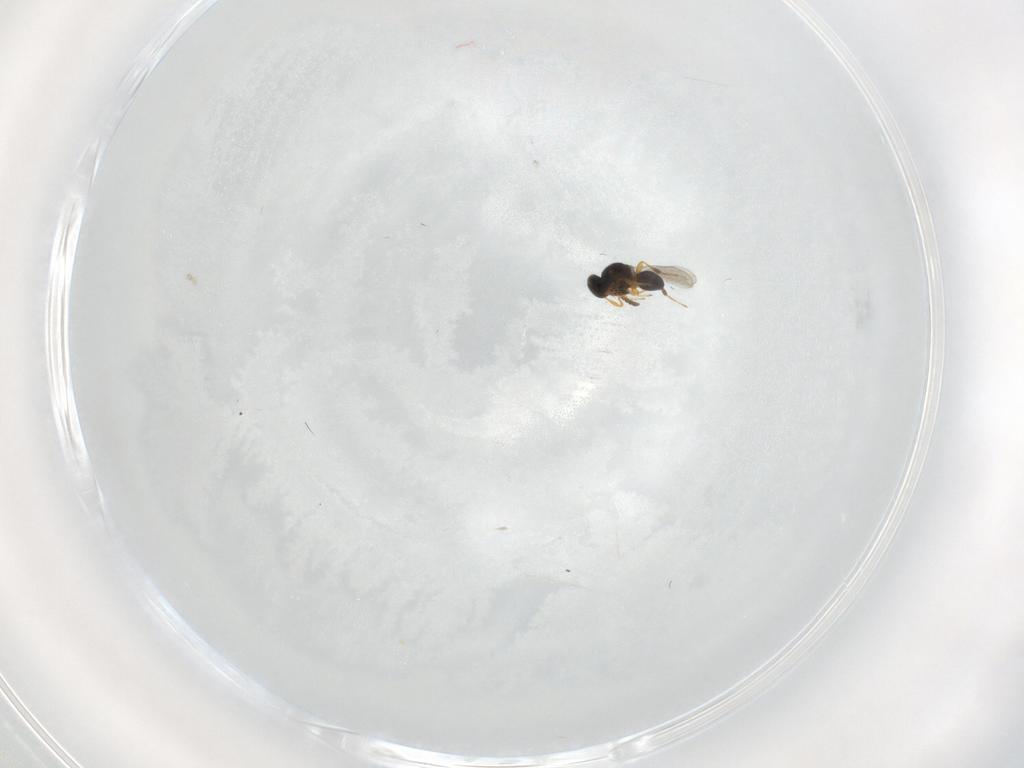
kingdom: Animalia
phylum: Arthropoda
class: Insecta
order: Hymenoptera
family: Platygastridae
